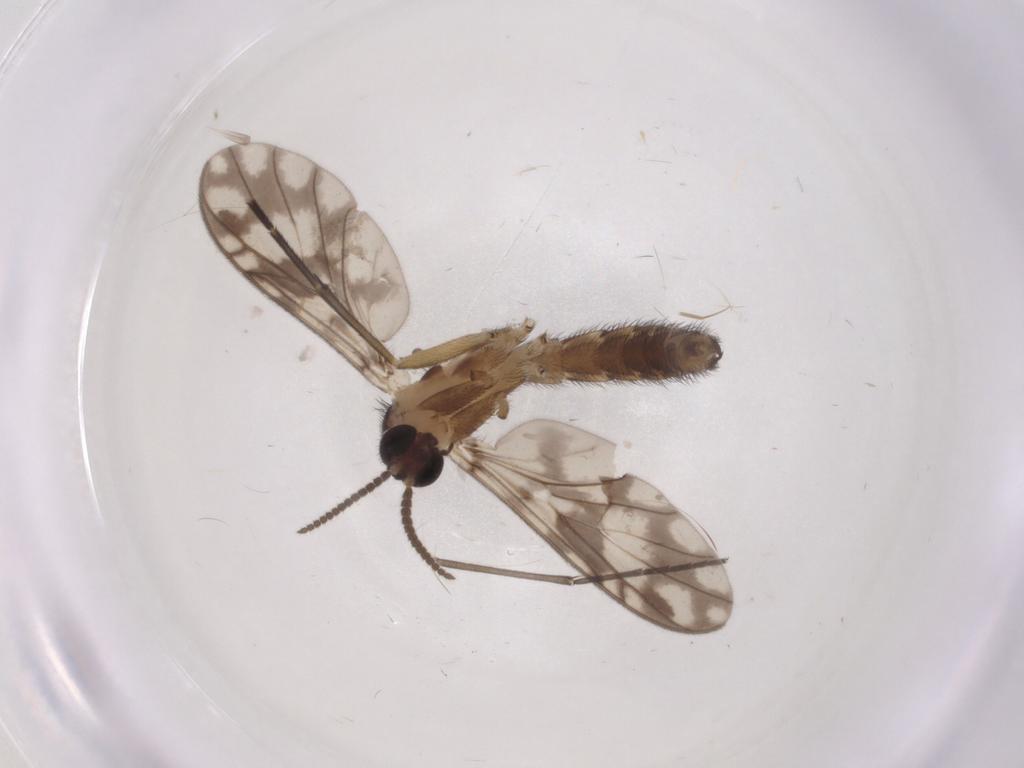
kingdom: Animalia
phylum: Arthropoda
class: Insecta
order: Diptera
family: Keroplatidae
